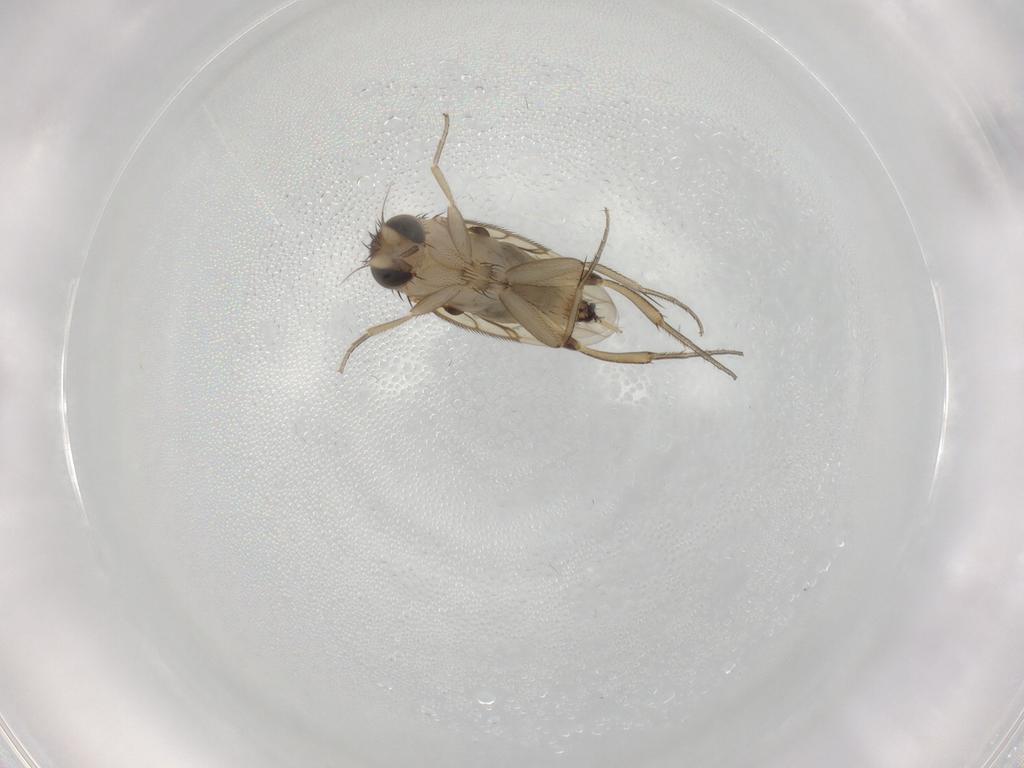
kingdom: Animalia
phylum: Arthropoda
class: Insecta
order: Diptera
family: Phoridae
